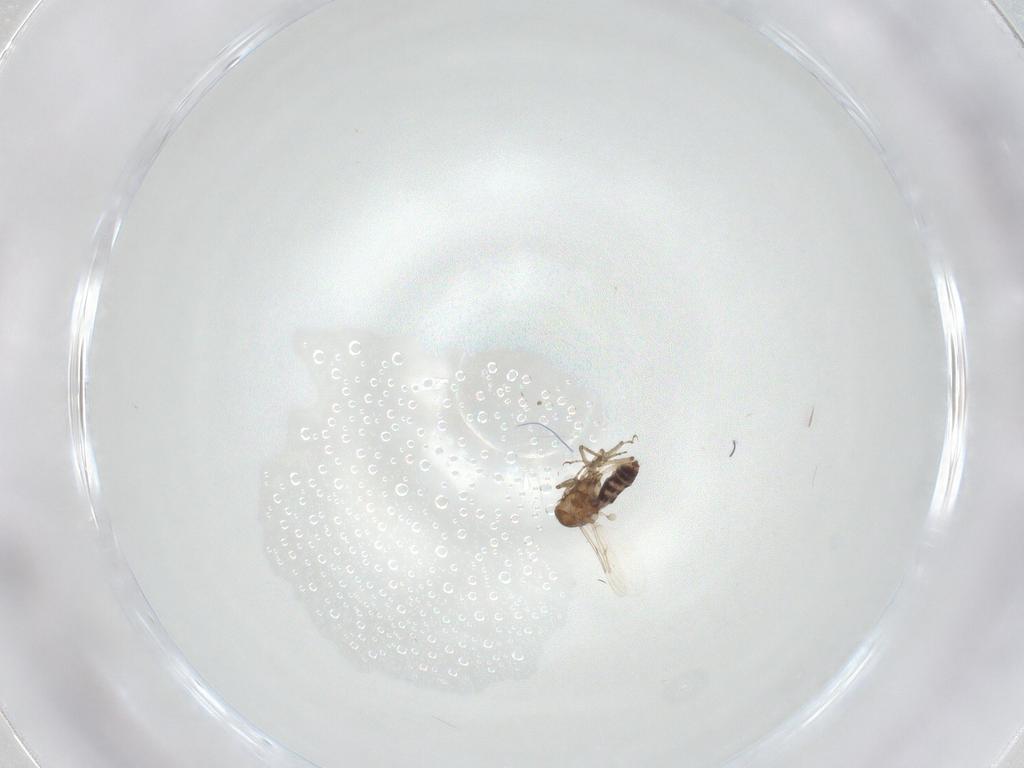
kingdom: Animalia
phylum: Arthropoda
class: Insecta
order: Diptera
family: Ceratopogonidae
